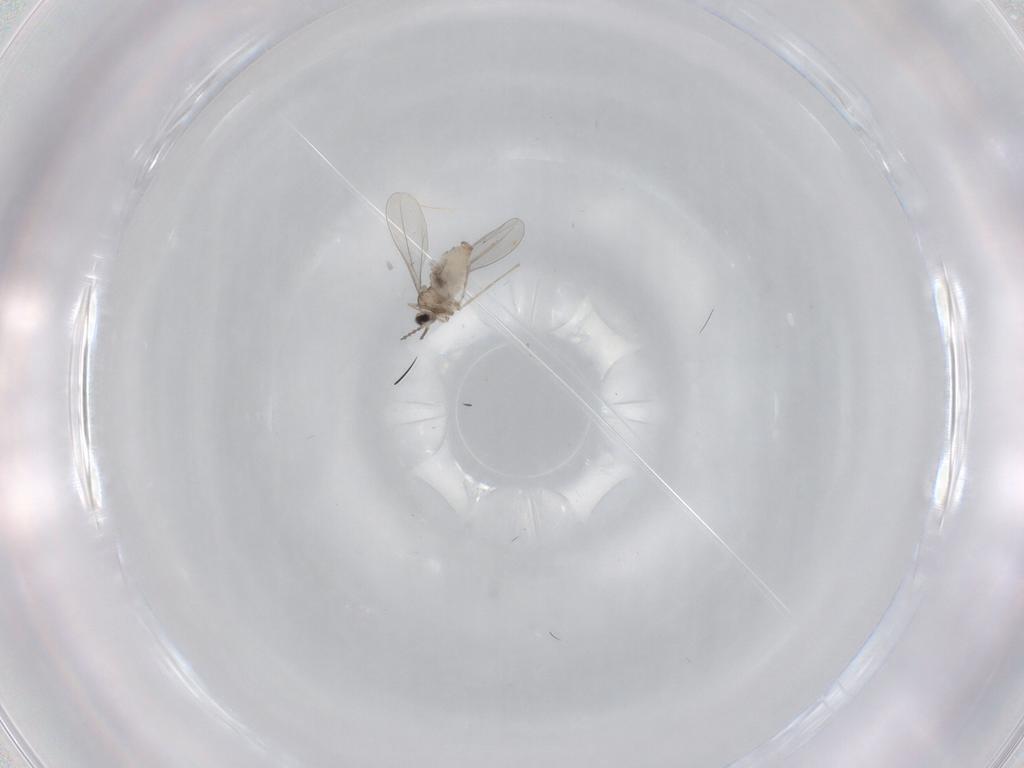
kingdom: Animalia
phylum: Arthropoda
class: Insecta
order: Diptera
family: Cecidomyiidae
